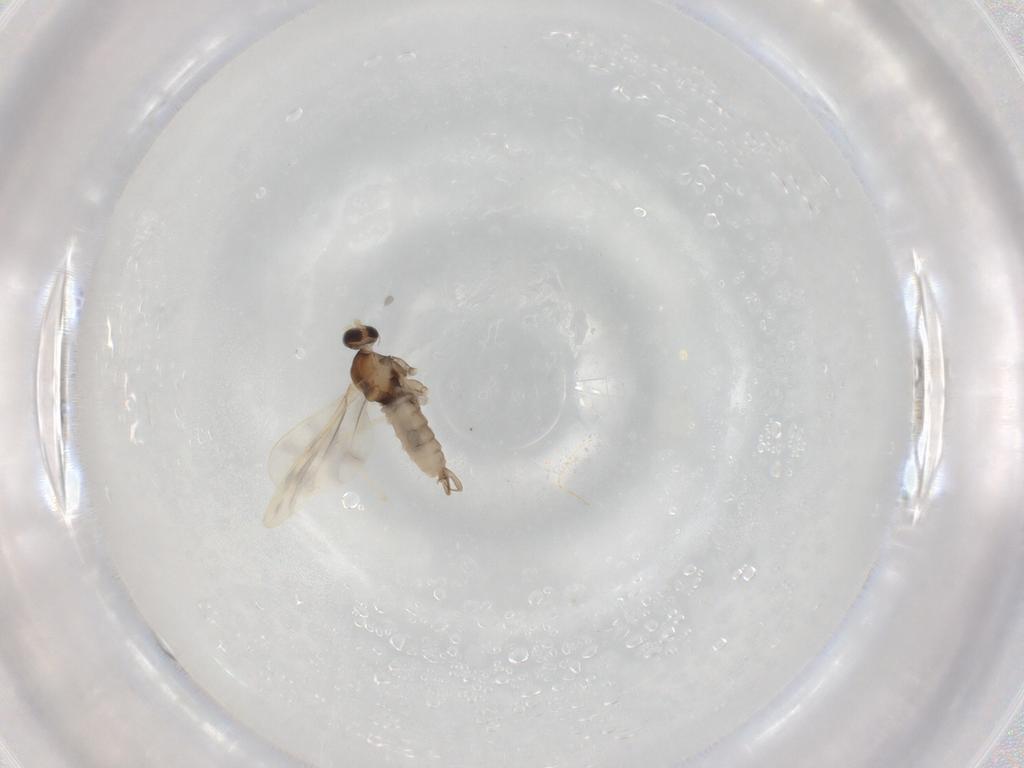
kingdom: Animalia
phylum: Arthropoda
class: Insecta
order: Diptera
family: Cecidomyiidae
